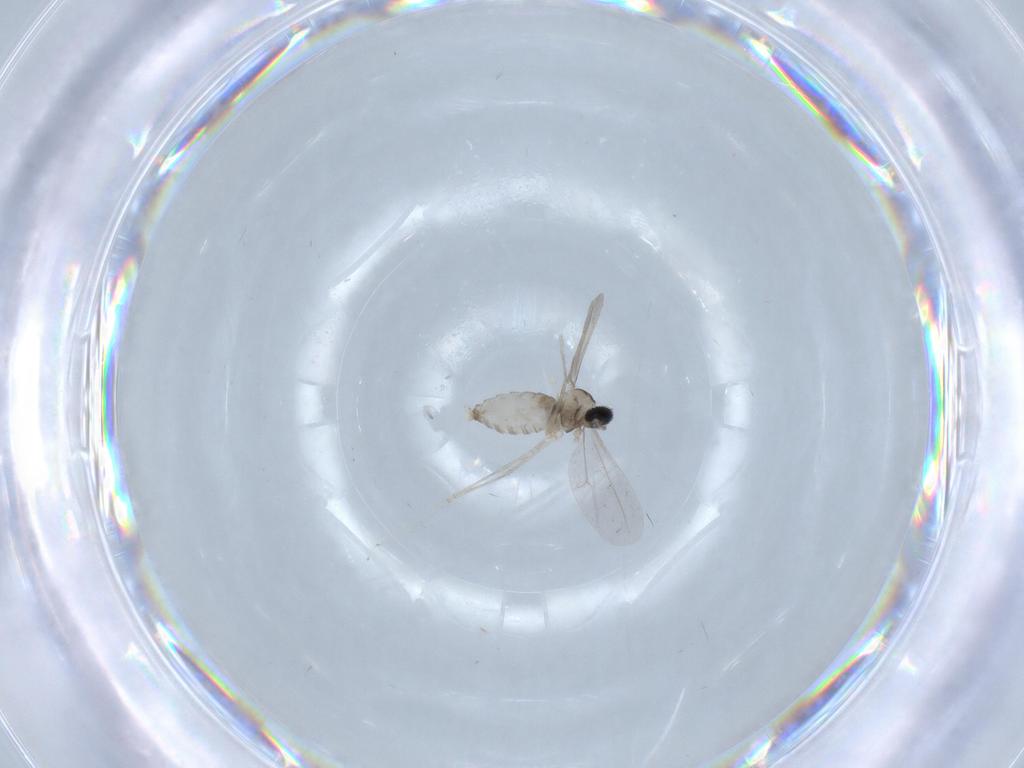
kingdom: Animalia
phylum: Arthropoda
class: Insecta
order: Diptera
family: Cecidomyiidae
